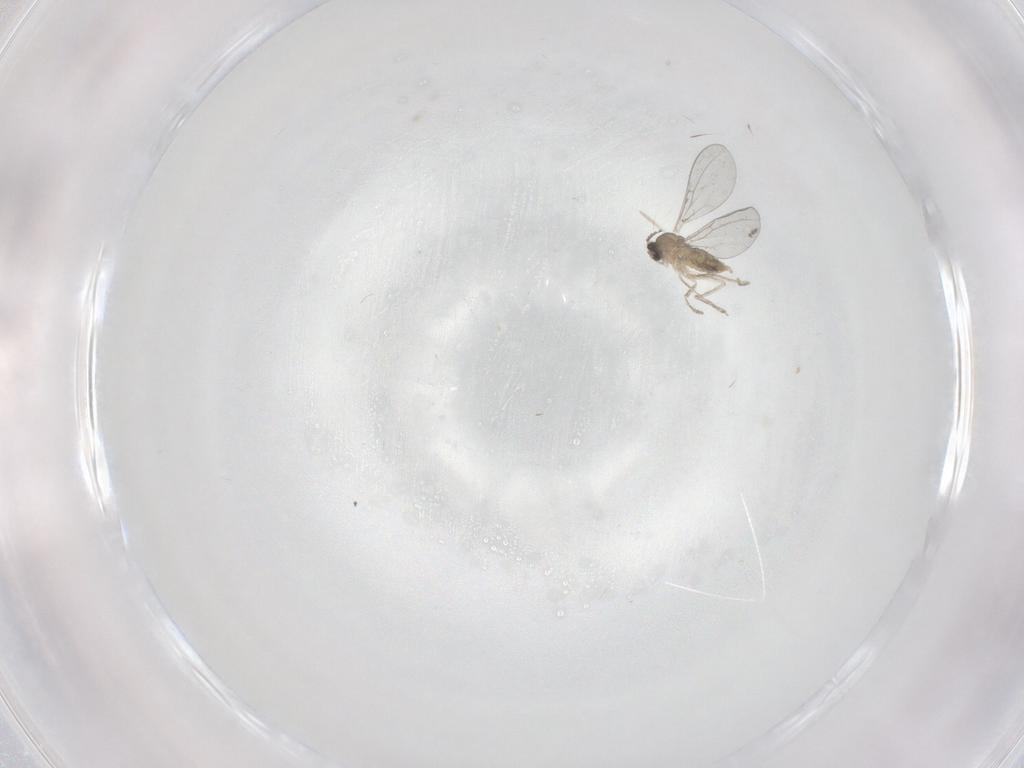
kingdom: Animalia
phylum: Arthropoda
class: Insecta
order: Diptera
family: Cecidomyiidae
